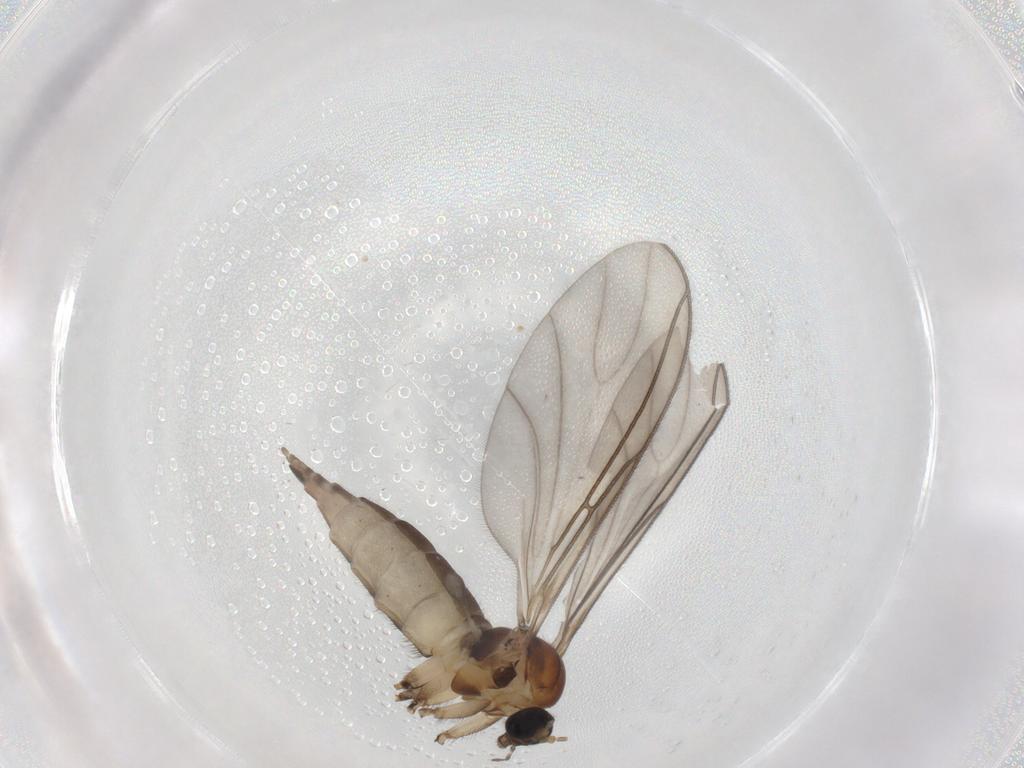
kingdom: Animalia
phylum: Arthropoda
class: Insecta
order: Diptera
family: Sciaridae
